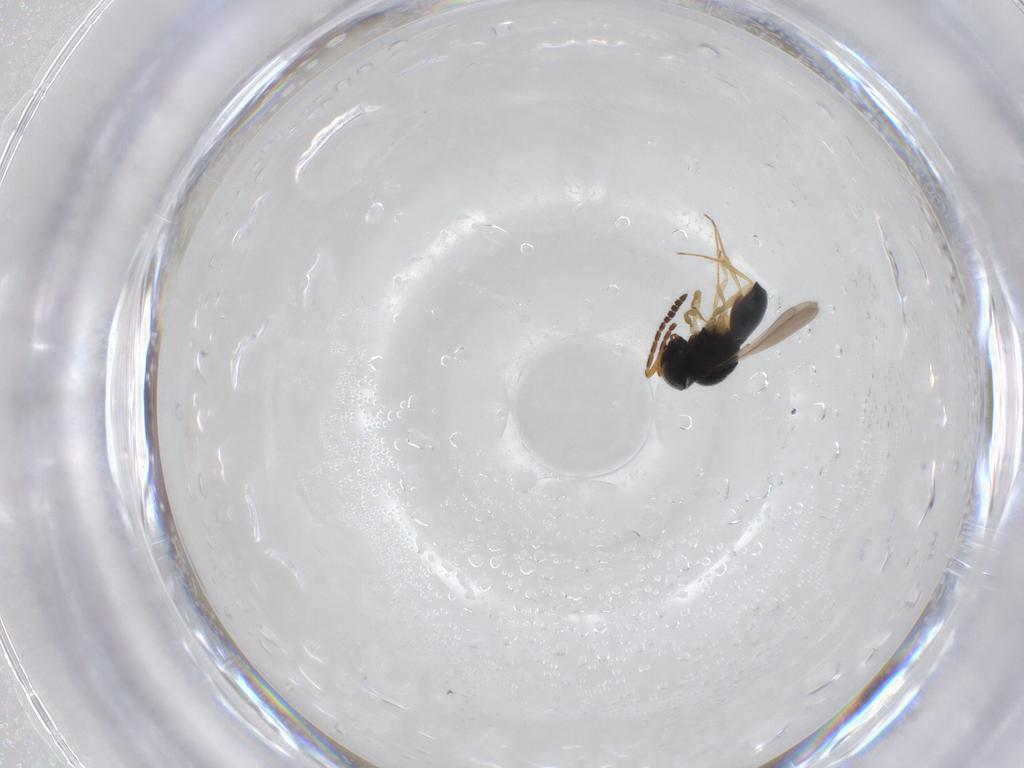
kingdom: Animalia
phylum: Arthropoda
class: Insecta
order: Hymenoptera
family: Scelionidae
